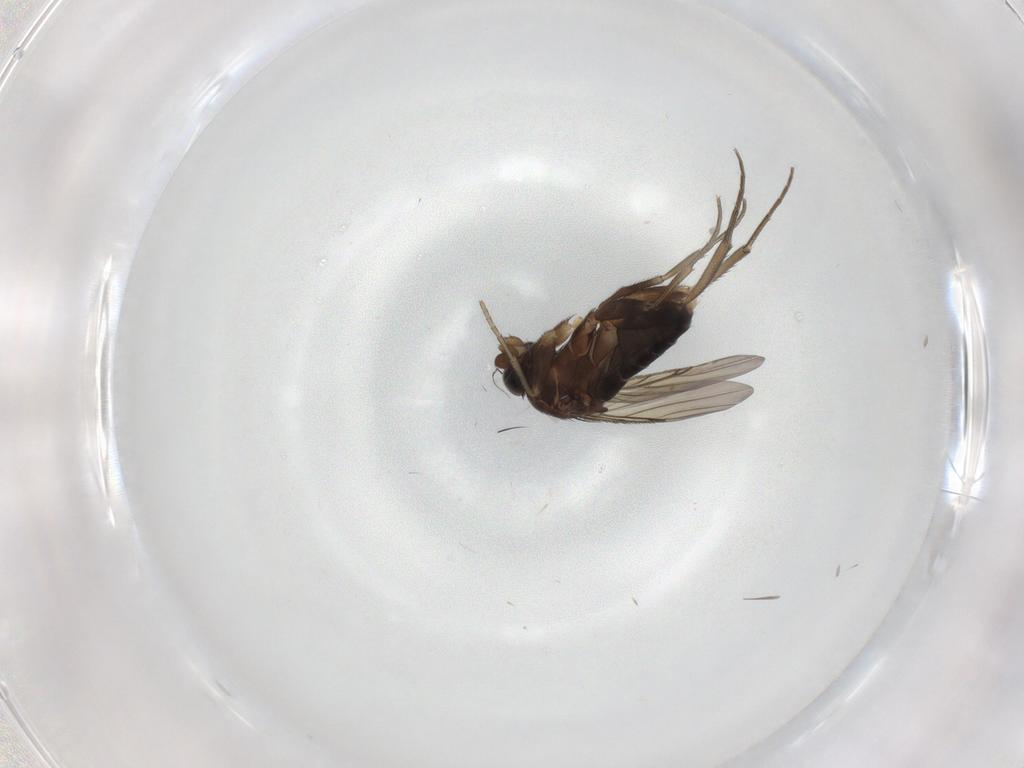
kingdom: Animalia
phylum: Arthropoda
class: Insecta
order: Diptera
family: Phoridae
